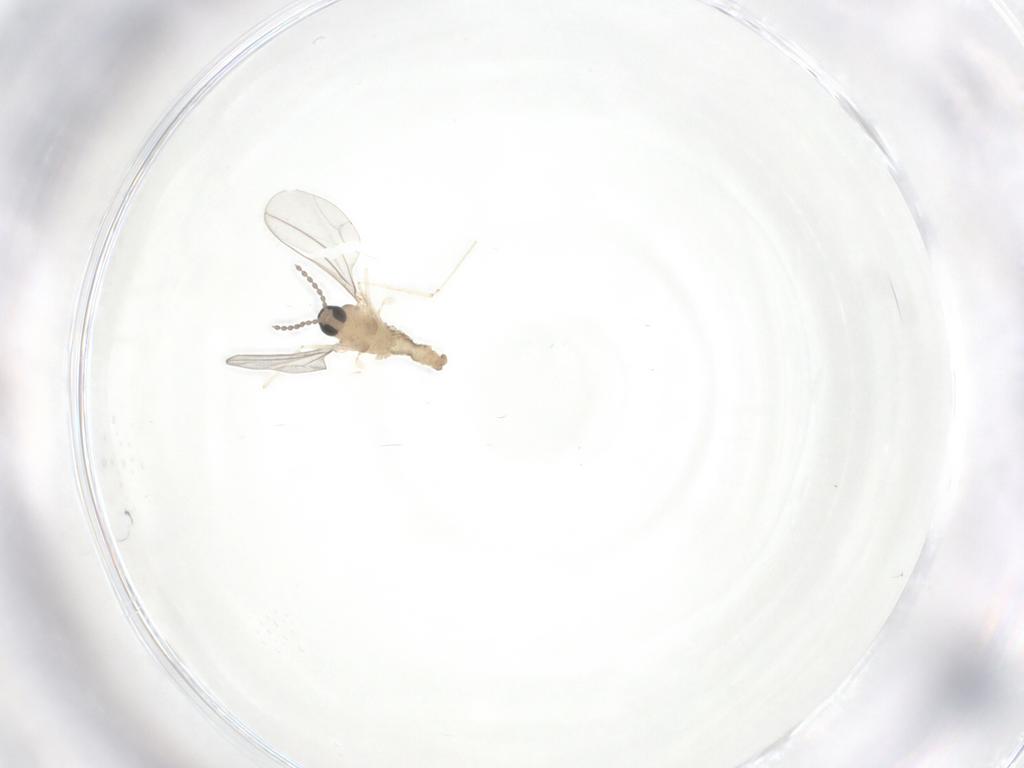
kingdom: Animalia
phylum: Arthropoda
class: Insecta
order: Diptera
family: Cecidomyiidae
